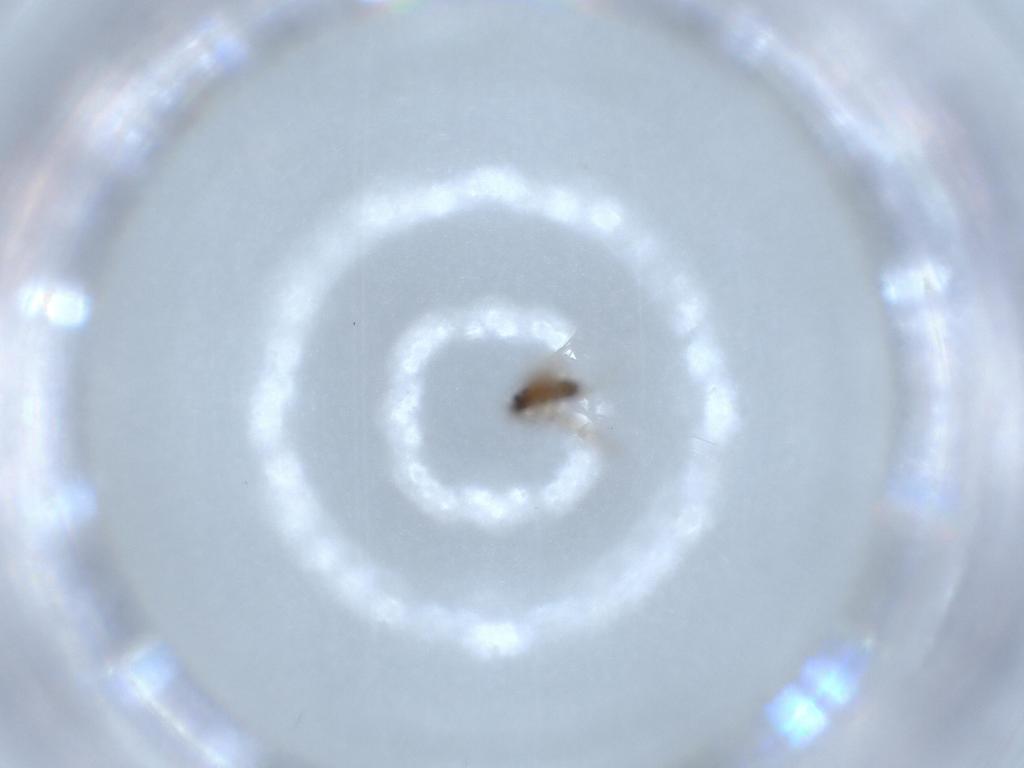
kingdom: Animalia
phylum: Arthropoda
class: Insecta
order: Diptera
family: Cecidomyiidae
